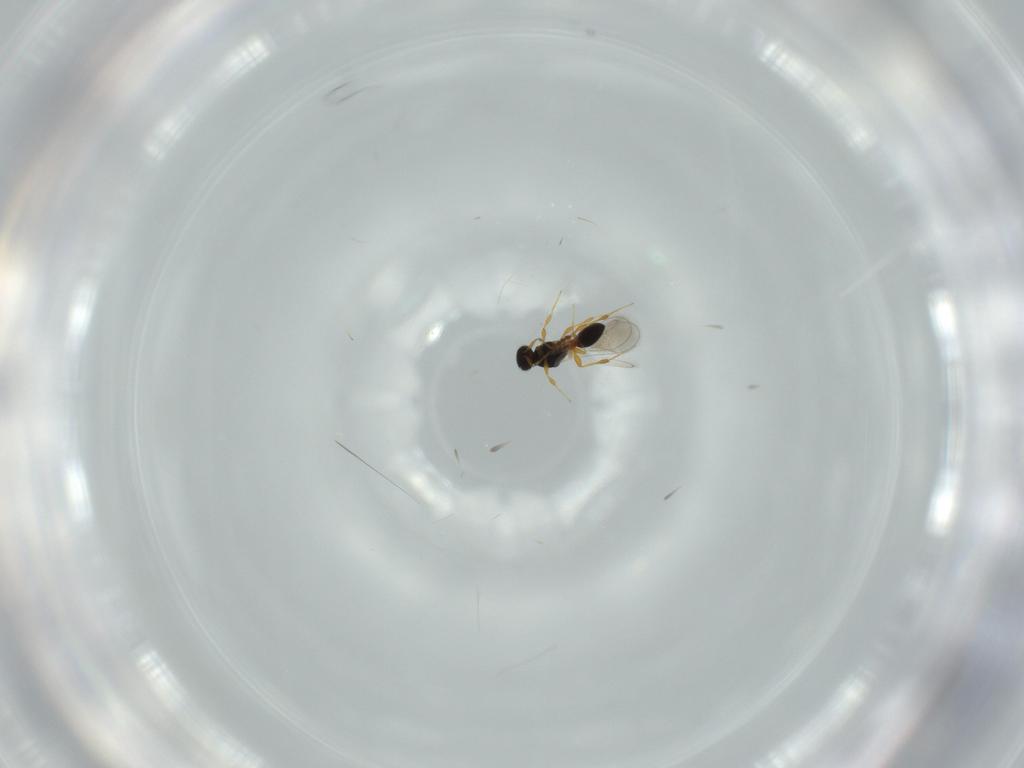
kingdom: Animalia
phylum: Arthropoda
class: Insecta
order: Hymenoptera
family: Platygastridae
